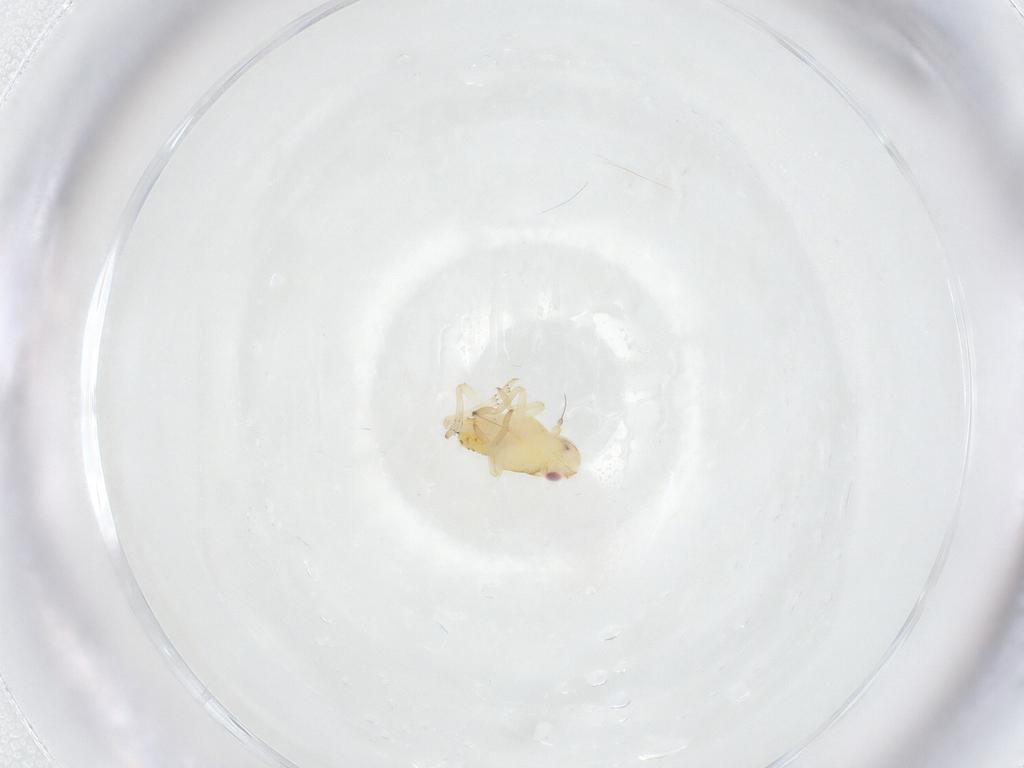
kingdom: Animalia
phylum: Arthropoda
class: Insecta
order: Hemiptera
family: Tropiduchidae
